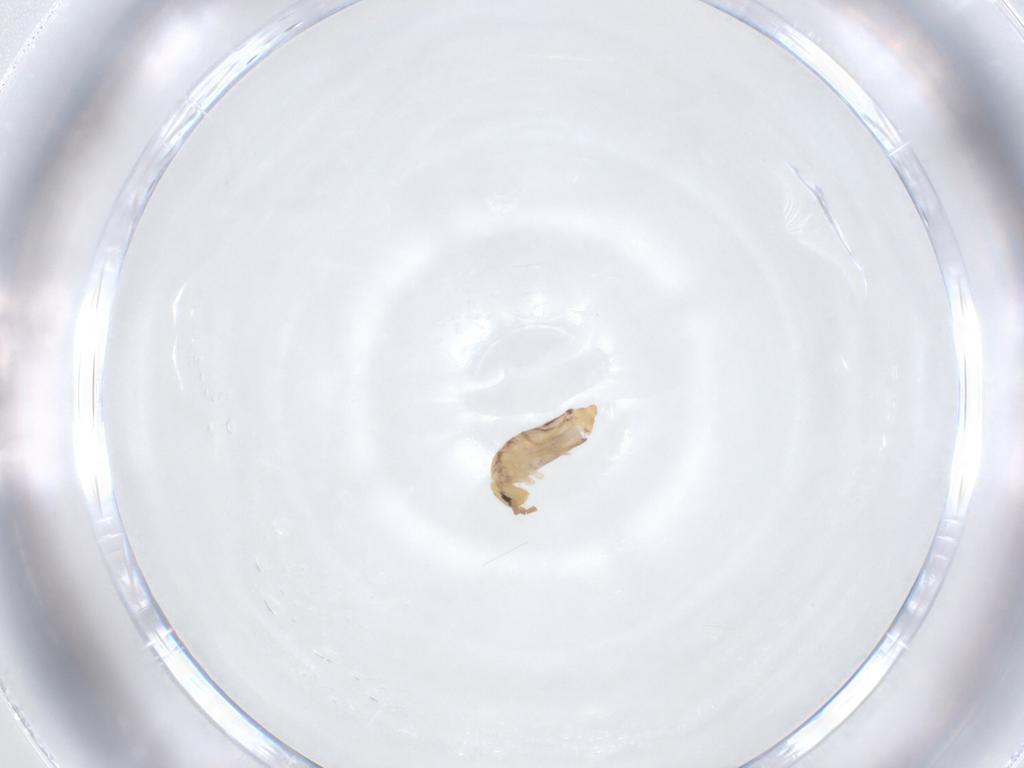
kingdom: Animalia
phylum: Arthropoda
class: Collembola
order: Entomobryomorpha
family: Entomobryidae
